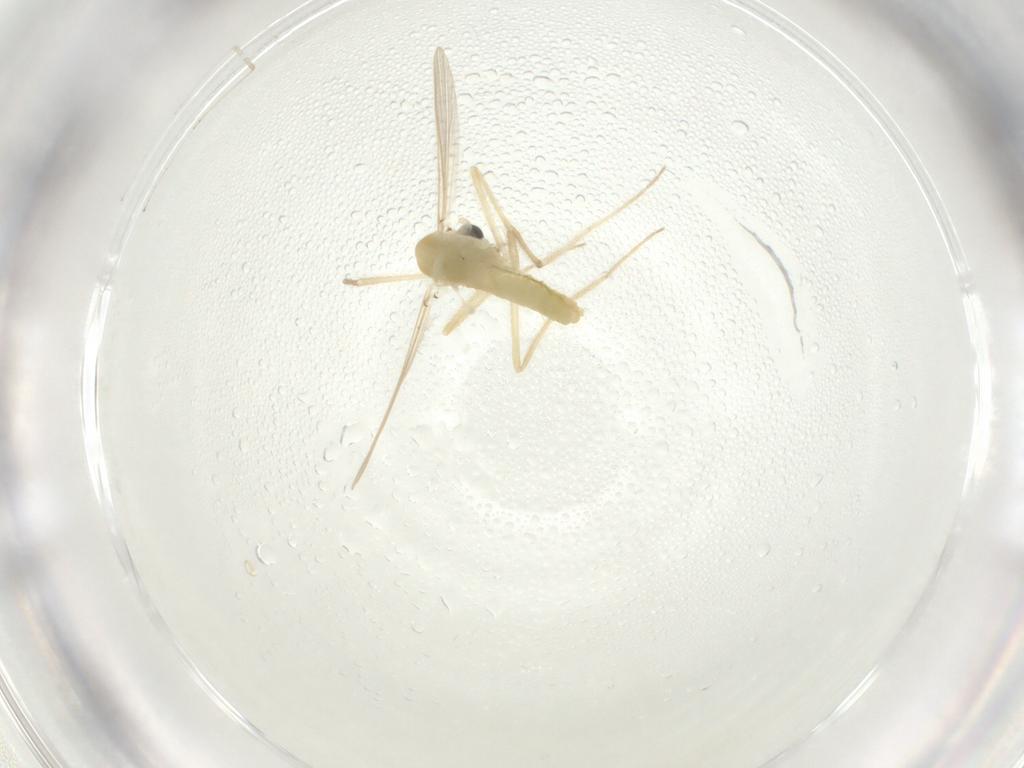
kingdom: Animalia
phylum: Arthropoda
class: Insecta
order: Diptera
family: Chironomidae
